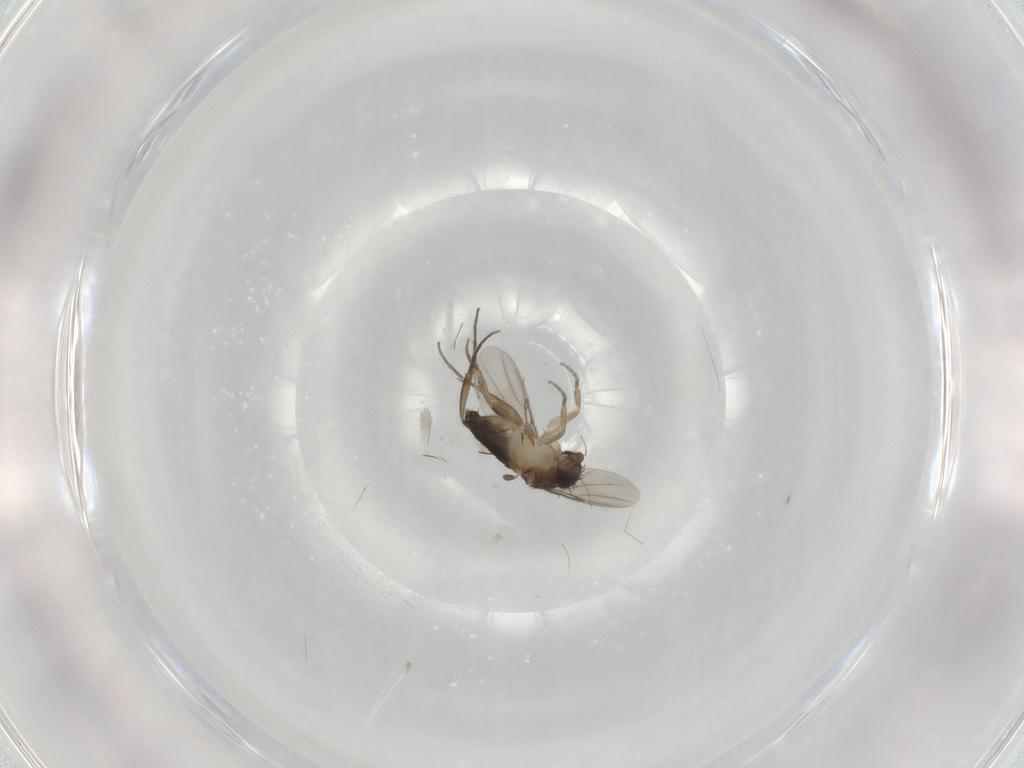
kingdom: Animalia
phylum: Arthropoda
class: Insecta
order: Diptera
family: Phoridae
